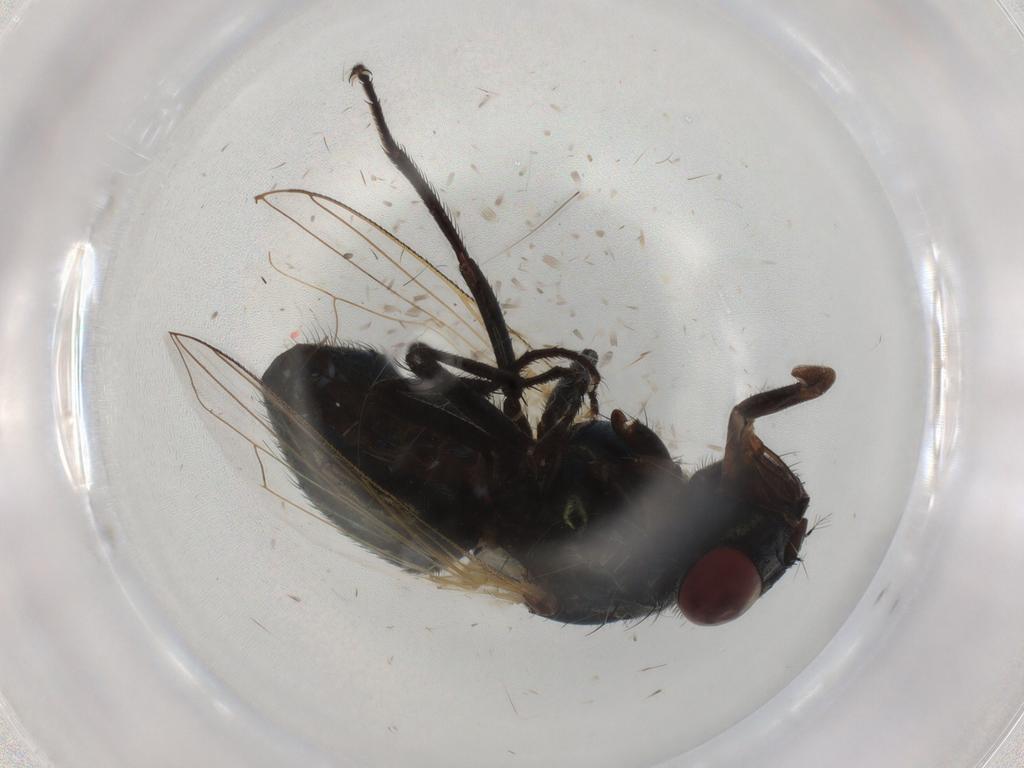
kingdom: Animalia
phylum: Arthropoda
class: Insecta
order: Diptera
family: Muscidae
